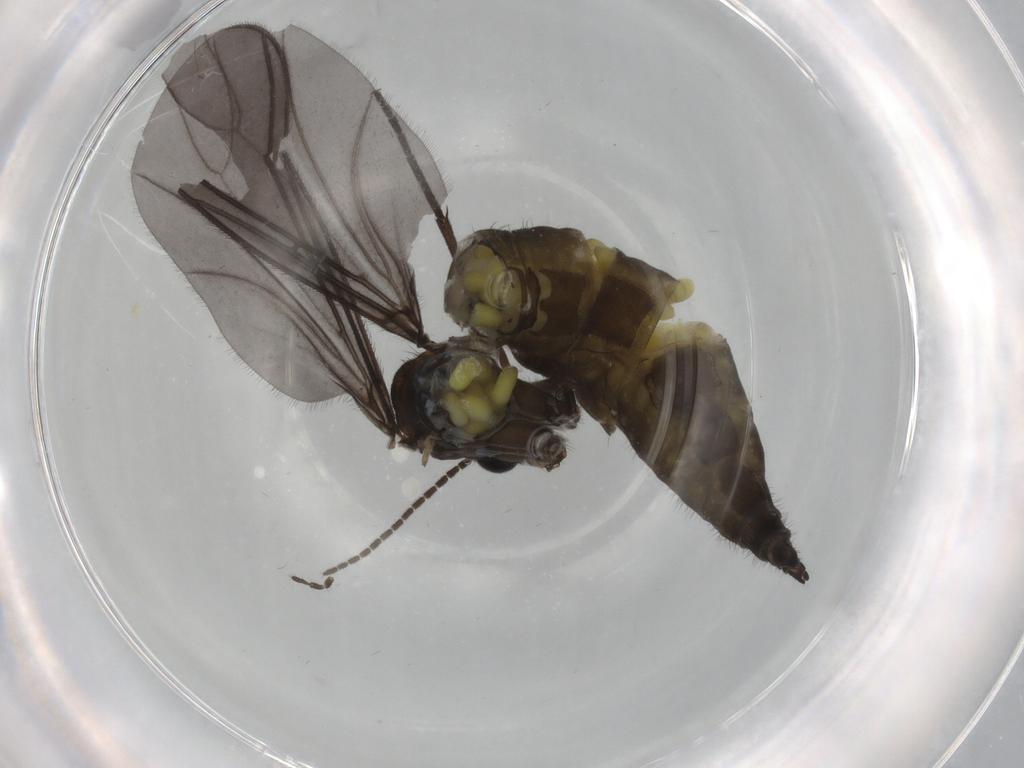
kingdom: Animalia
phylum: Arthropoda
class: Insecta
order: Diptera
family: Sciaridae
